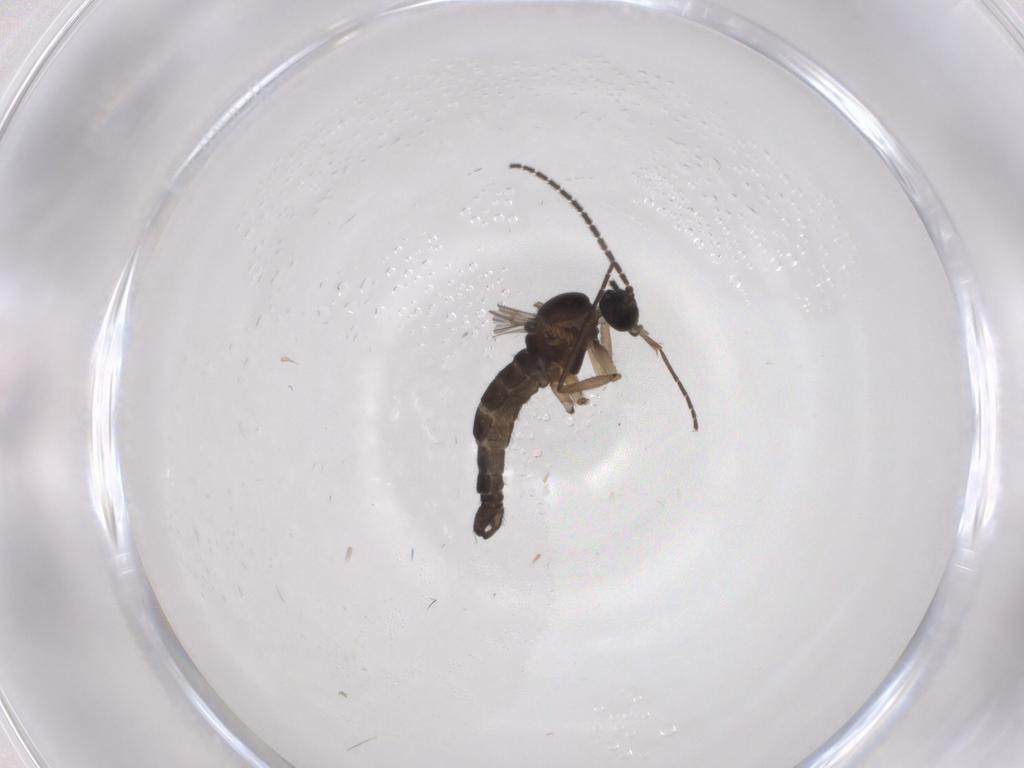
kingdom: Animalia
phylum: Arthropoda
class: Insecta
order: Diptera
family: Sciaridae
